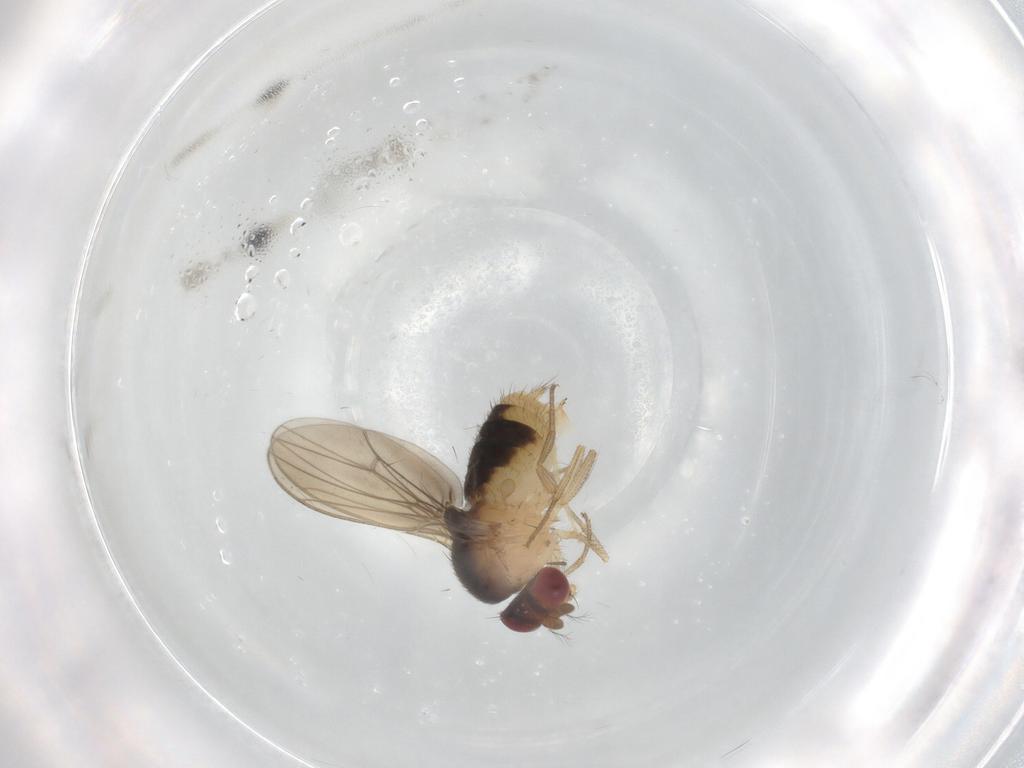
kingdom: Animalia
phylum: Arthropoda
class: Insecta
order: Diptera
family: Drosophilidae
